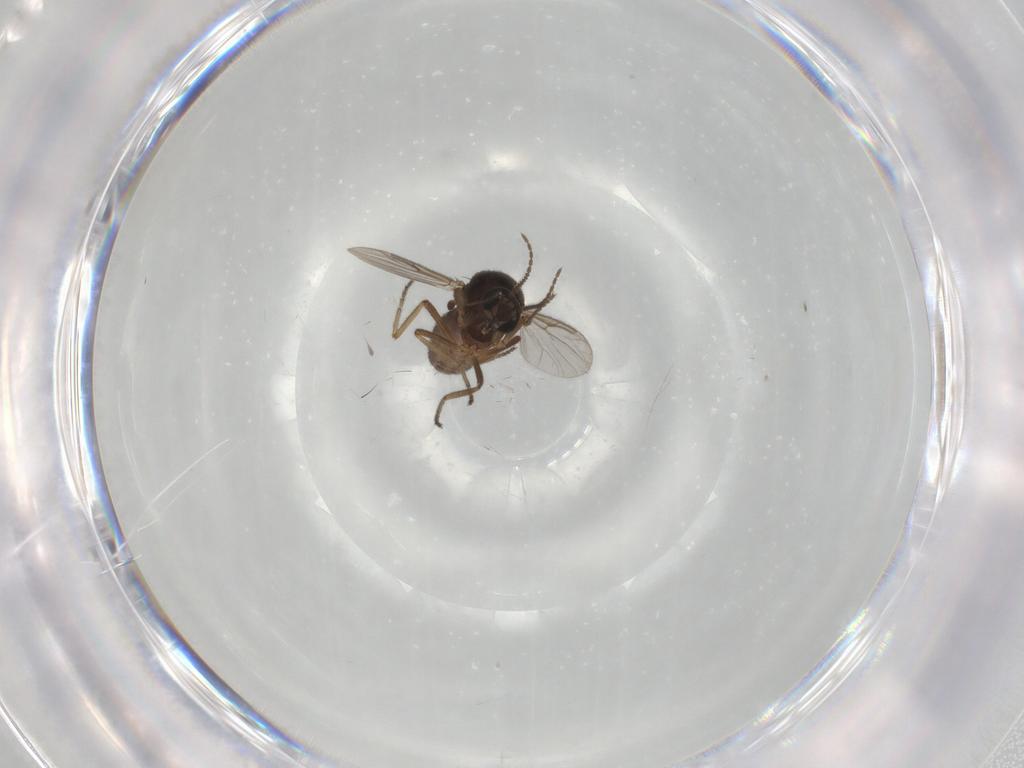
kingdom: Animalia
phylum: Arthropoda
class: Insecta
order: Diptera
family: Ceratopogonidae
